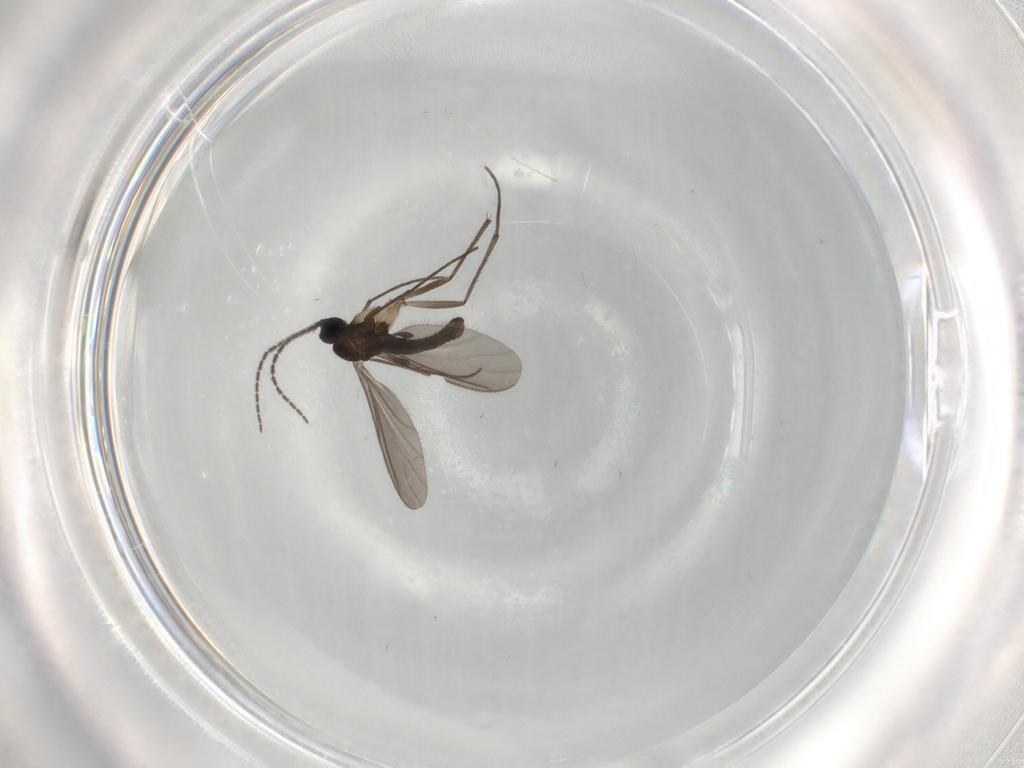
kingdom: Animalia
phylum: Arthropoda
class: Insecta
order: Diptera
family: Sciaridae
